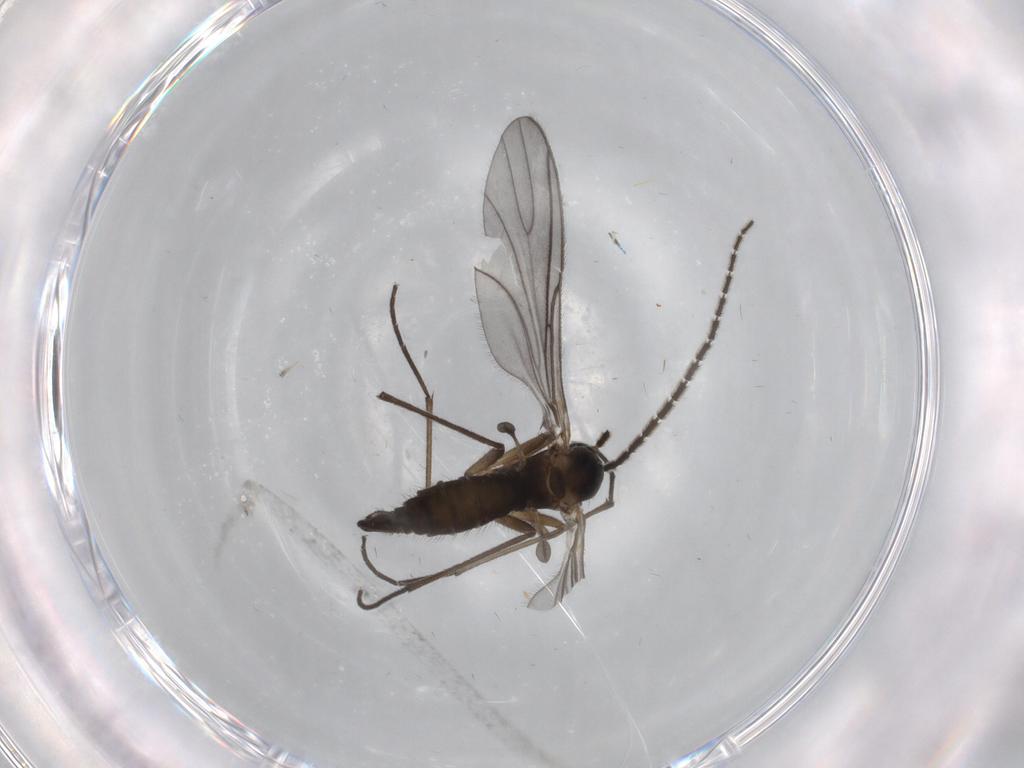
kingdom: Animalia
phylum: Arthropoda
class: Insecta
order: Diptera
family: Sciaridae
